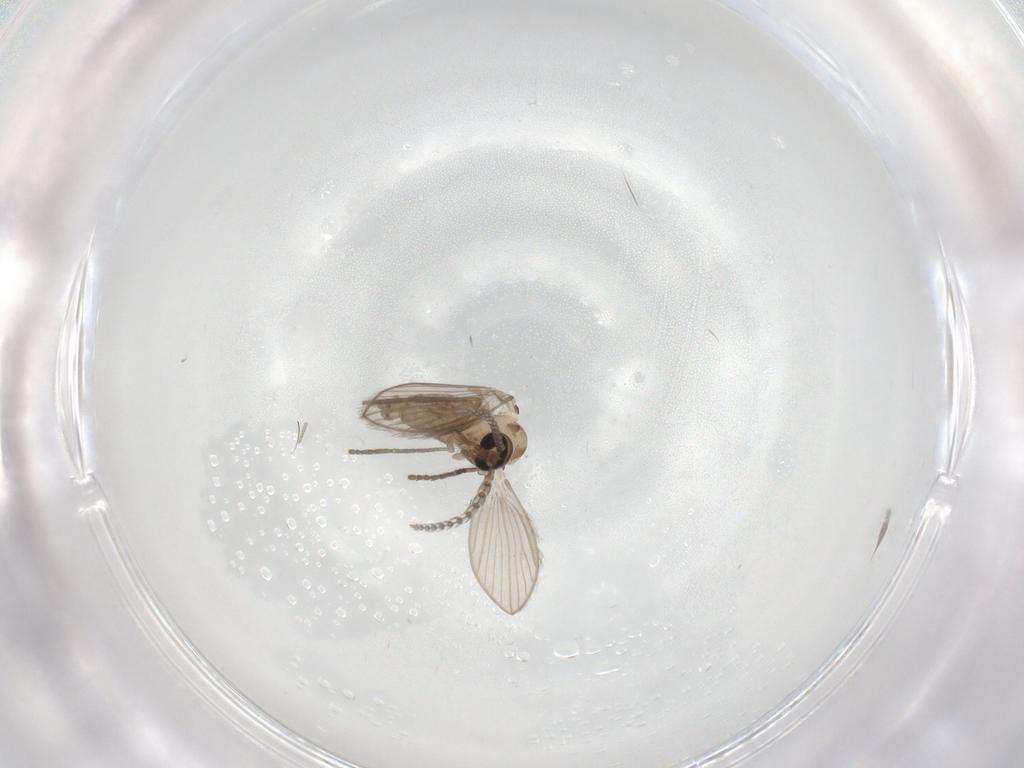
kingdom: Animalia
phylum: Arthropoda
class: Insecta
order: Diptera
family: Psychodidae
